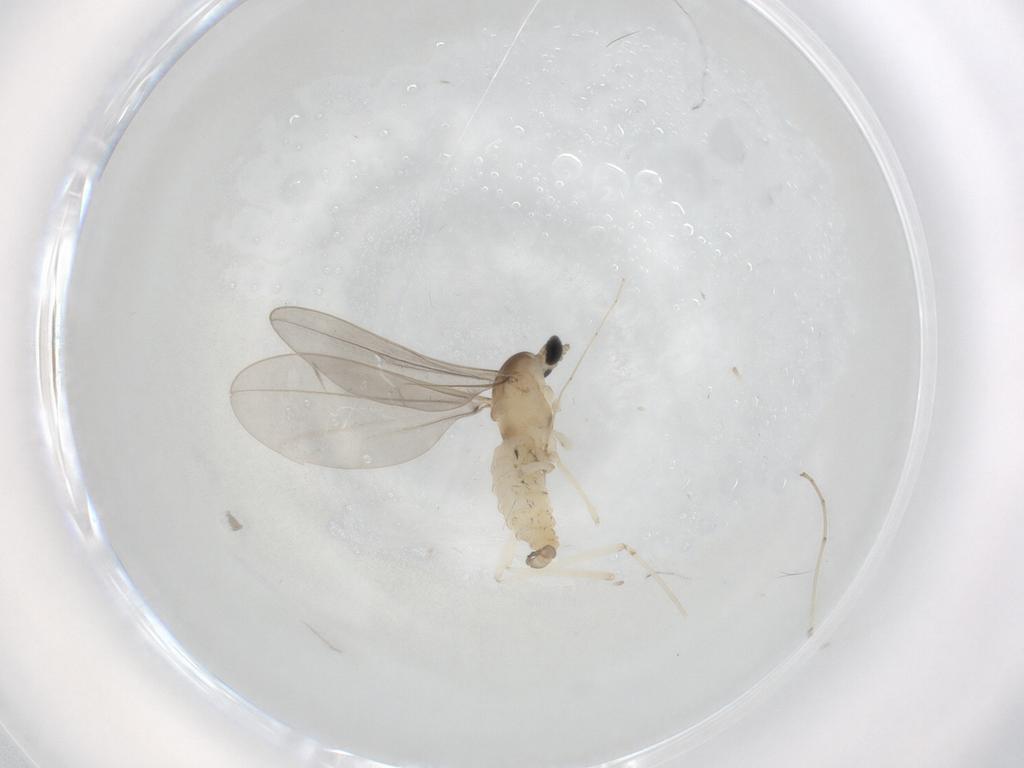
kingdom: Animalia
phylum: Arthropoda
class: Insecta
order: Diptera
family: Cecidomyiidae
